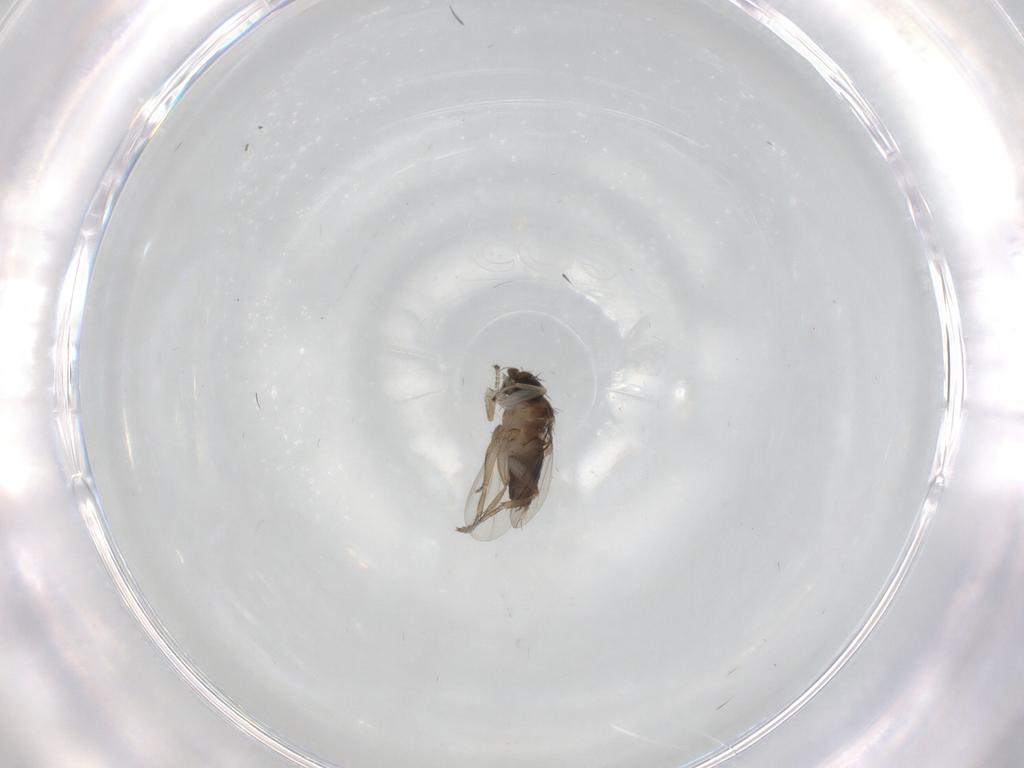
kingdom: Animalia
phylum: Arthropoda
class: Insecta
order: Diptera
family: Phoridae
